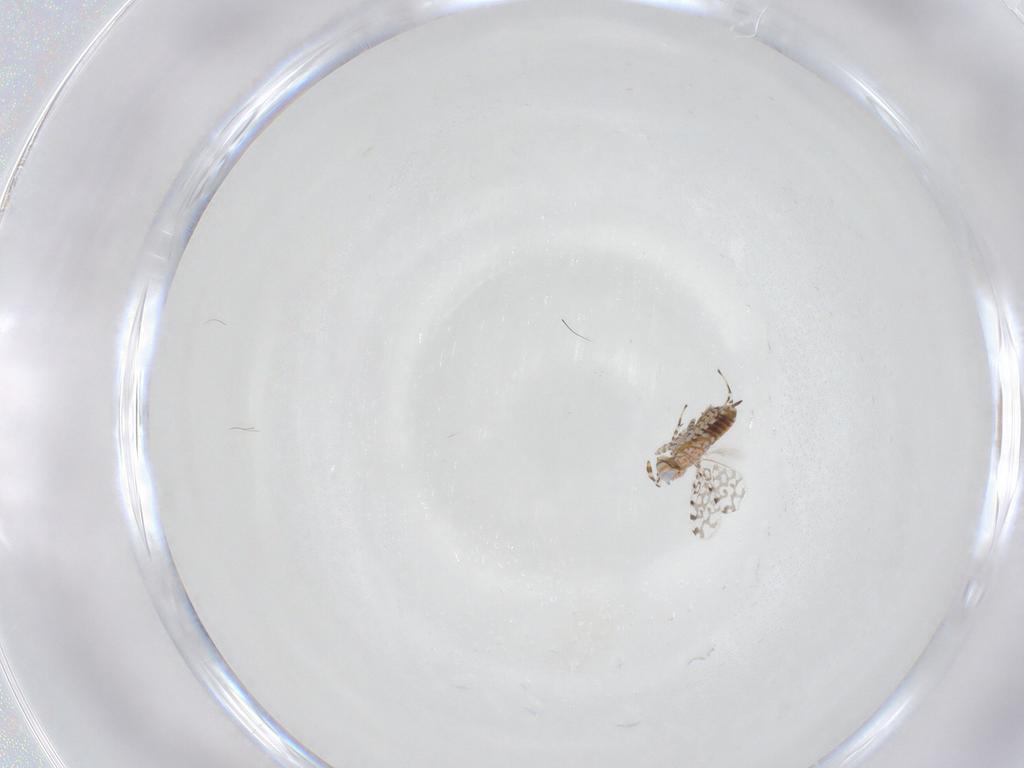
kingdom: Animalia
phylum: Arthropoda
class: Insecta
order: Hymenoptera
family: Aphelinidae
